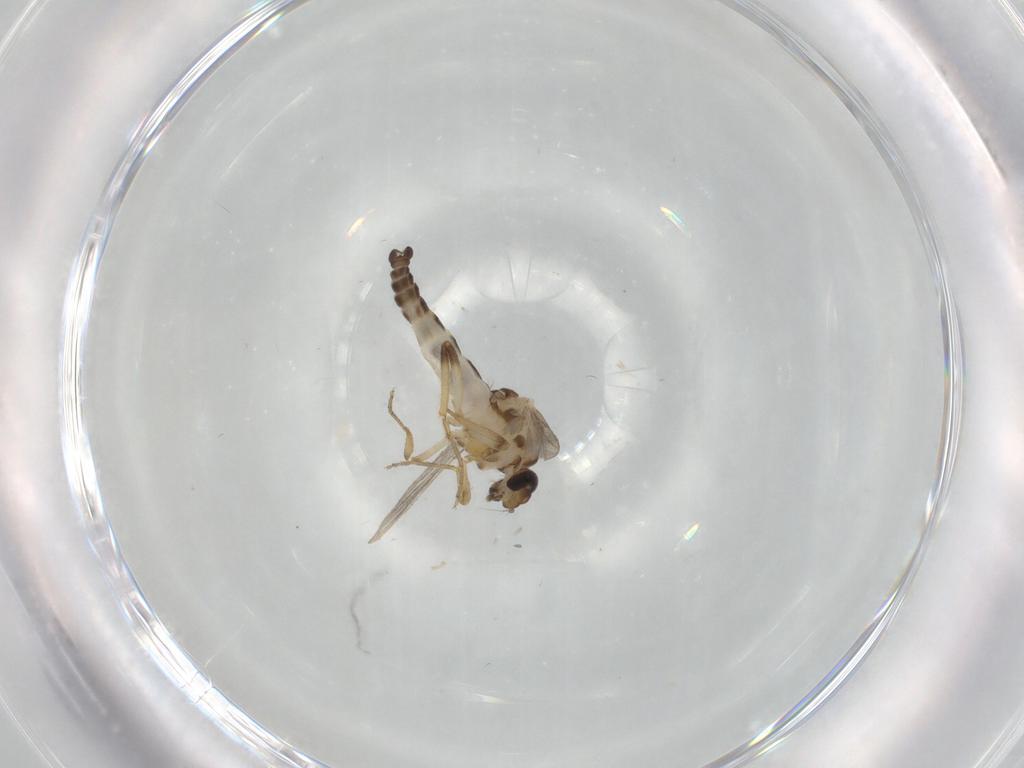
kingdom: Animalia
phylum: Arthropoda
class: Insecta
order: Diptera
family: Ceratopogonidae
